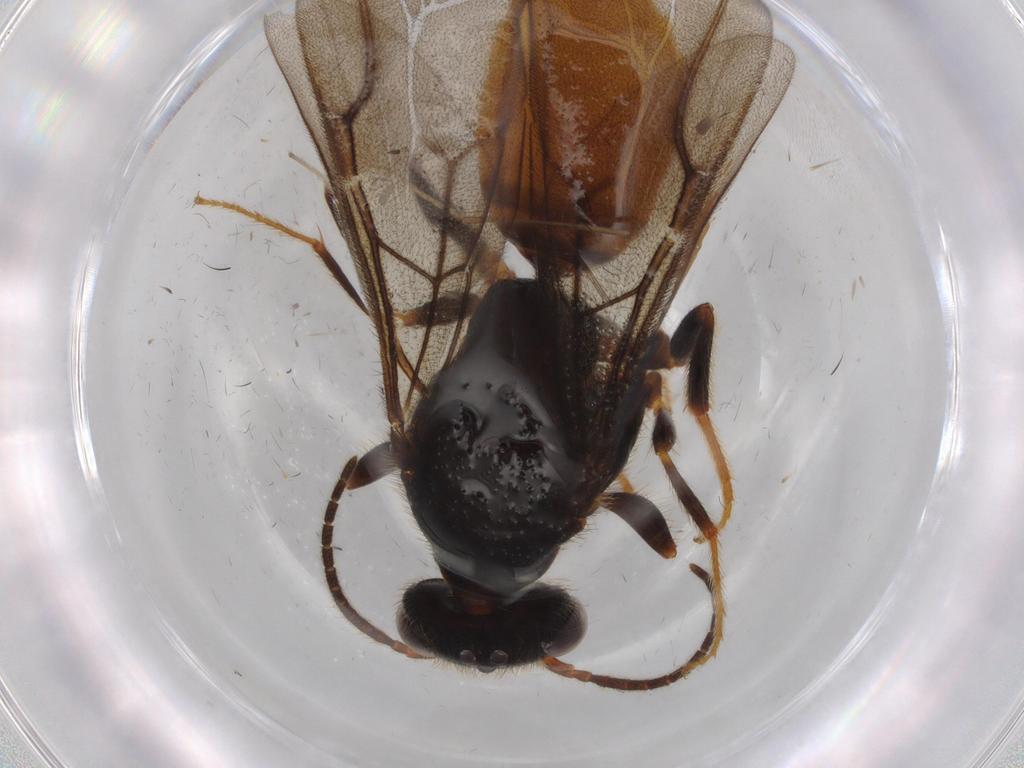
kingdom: Animalia
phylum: Arthropoda
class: Insecta
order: Hymenoptera
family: Bethylidae
